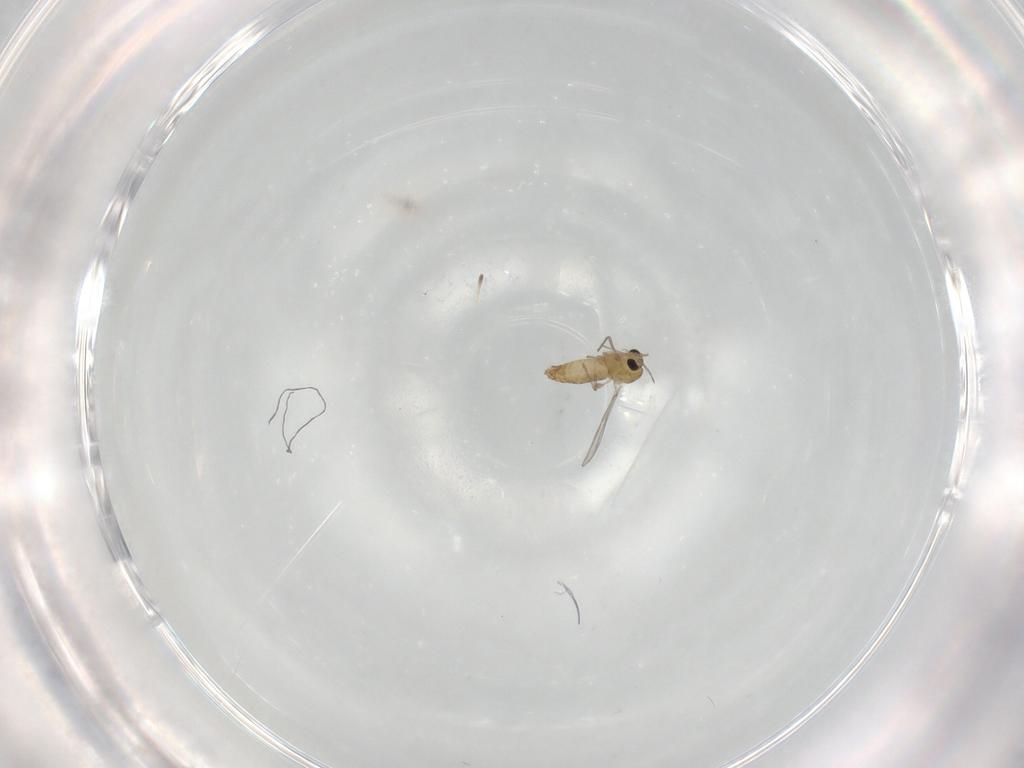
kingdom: Animalia
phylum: Arthropoda
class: Insecta
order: Diptera
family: Chironomidae
